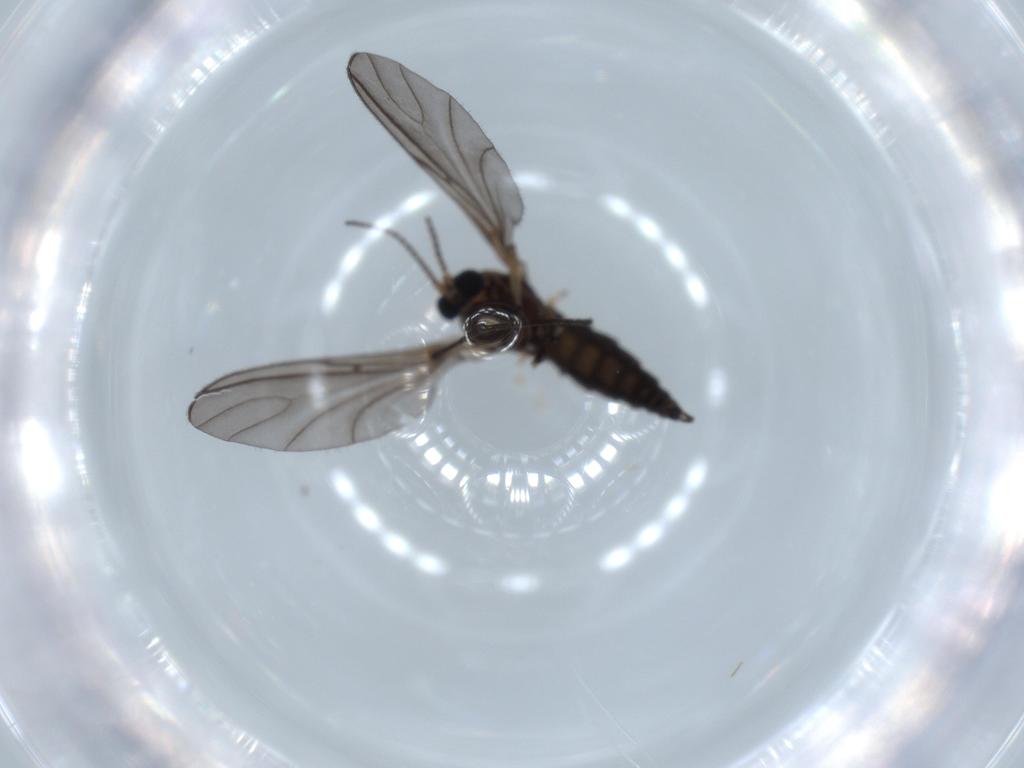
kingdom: Animalia
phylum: Arthropoda
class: Insecta
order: Diptera
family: Sciaridae
